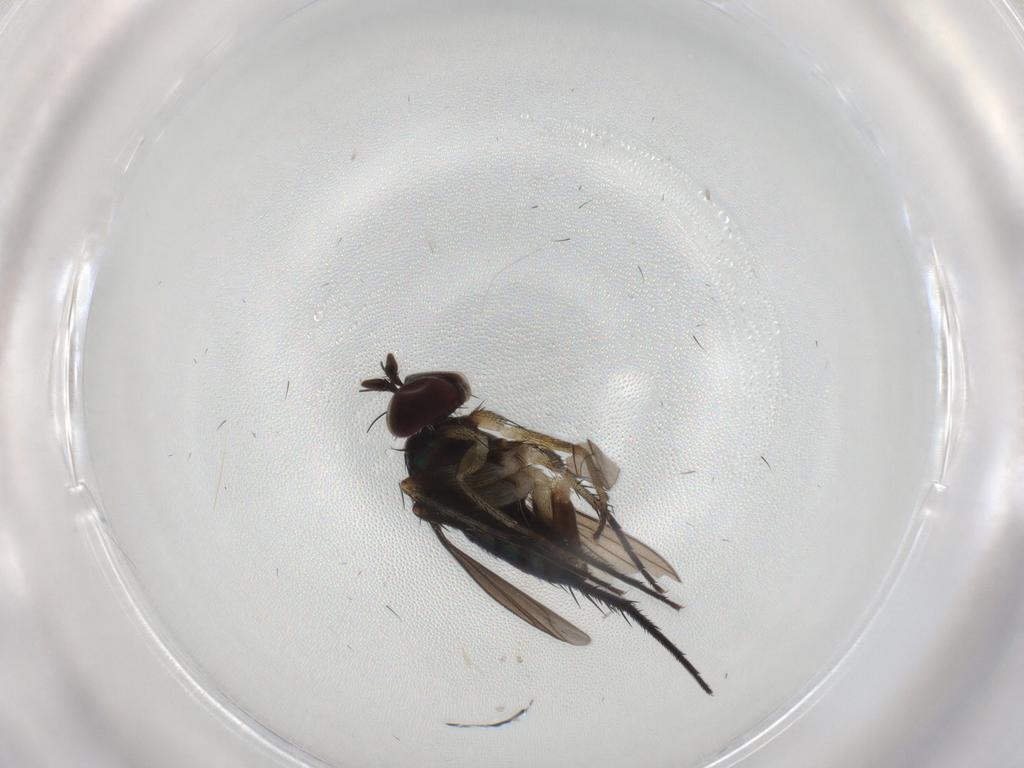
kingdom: Animalia
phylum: Arthropoda
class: Insecta
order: Diptera
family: Dolichopodidae
